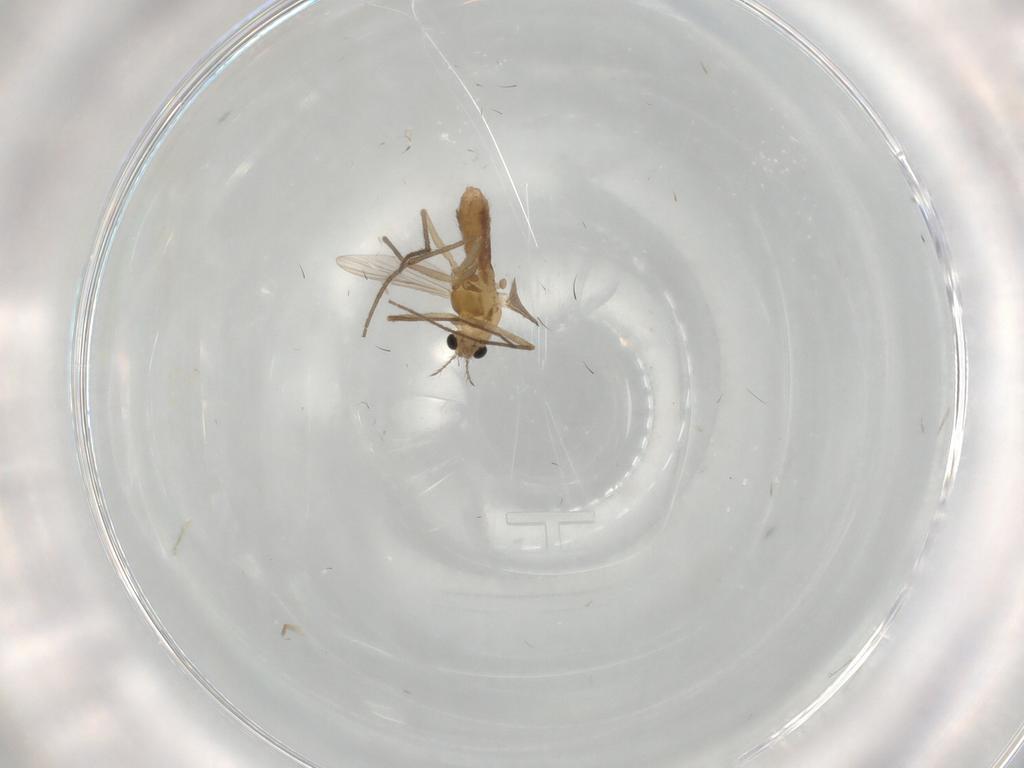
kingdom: Animalia
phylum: Arthropoda
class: Insecta
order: Diptera
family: Chironomidae
